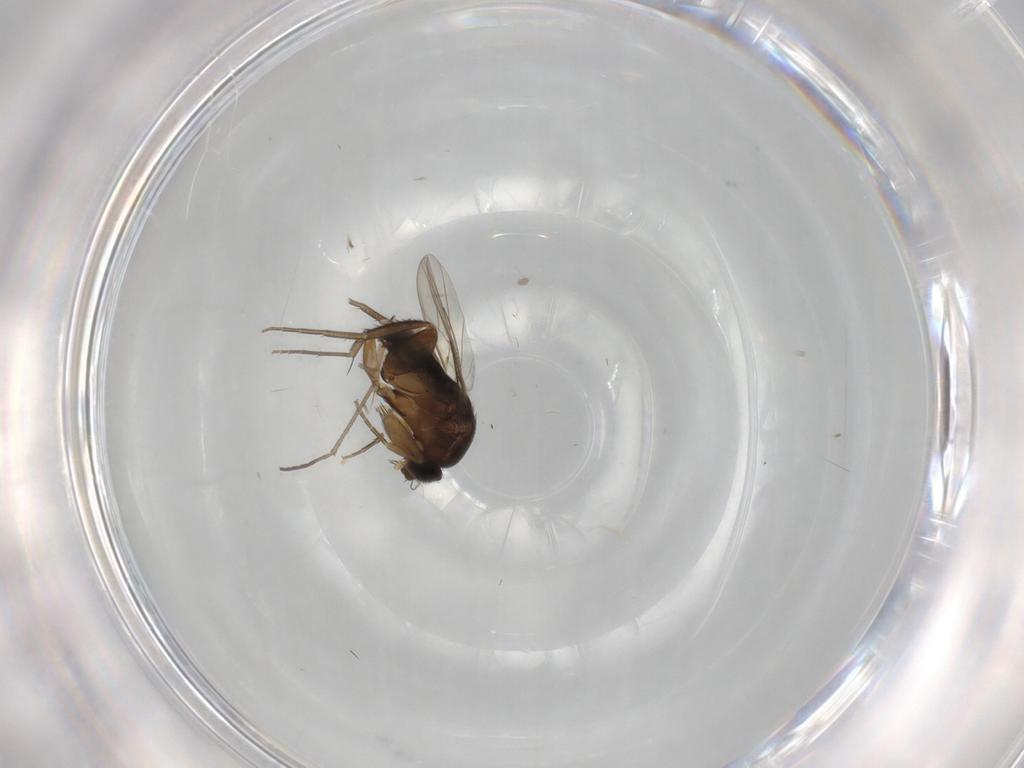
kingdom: Animalia
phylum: Arthropoda
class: Insecta
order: Diptera
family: Phoridae
